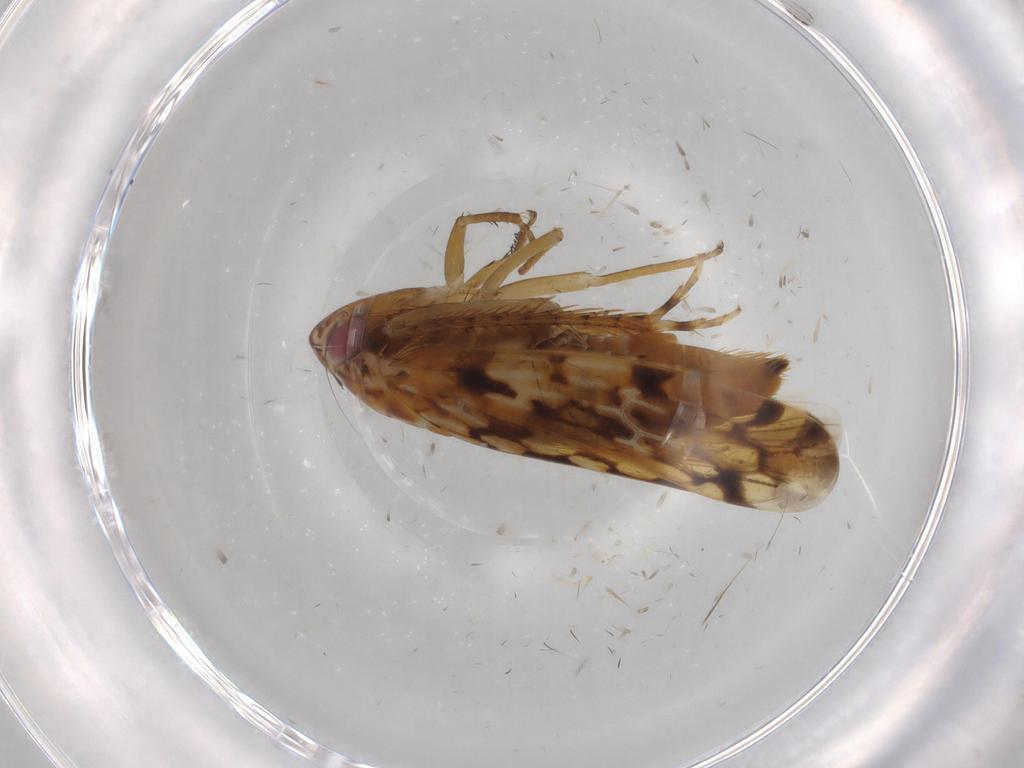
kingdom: Animalia
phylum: Arthropoda
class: Insecta
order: Hemiptera
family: Cicadellidae
